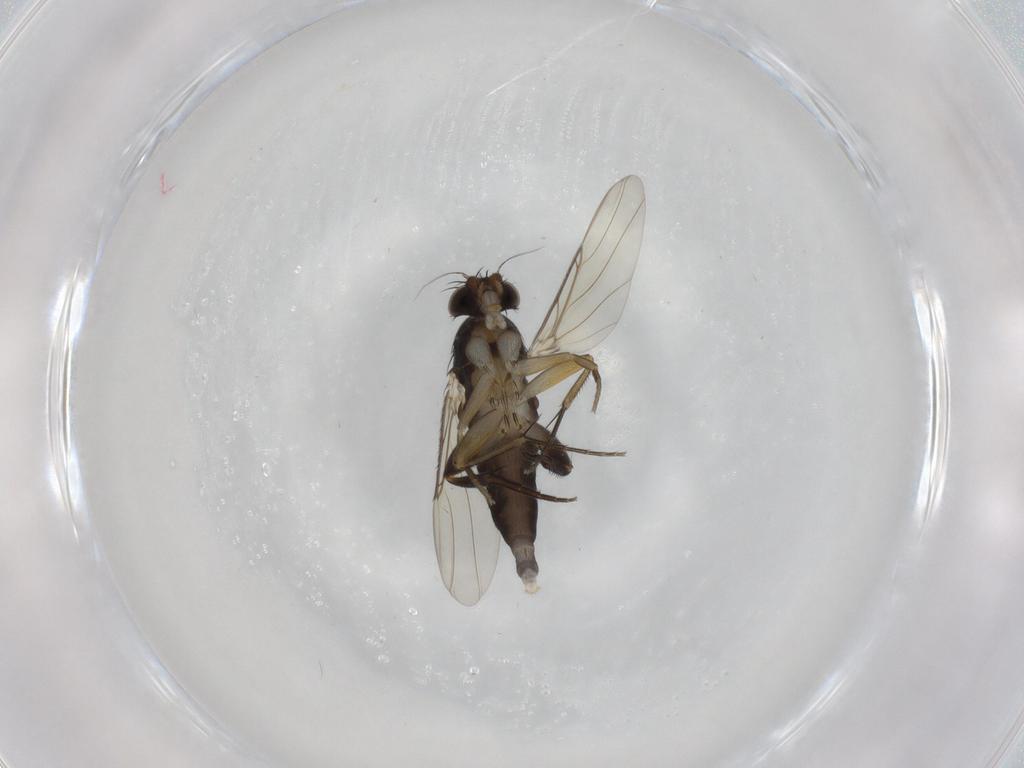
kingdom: Animalia
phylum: Arthropoda
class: Insecta
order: Diptera
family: Phoridae
